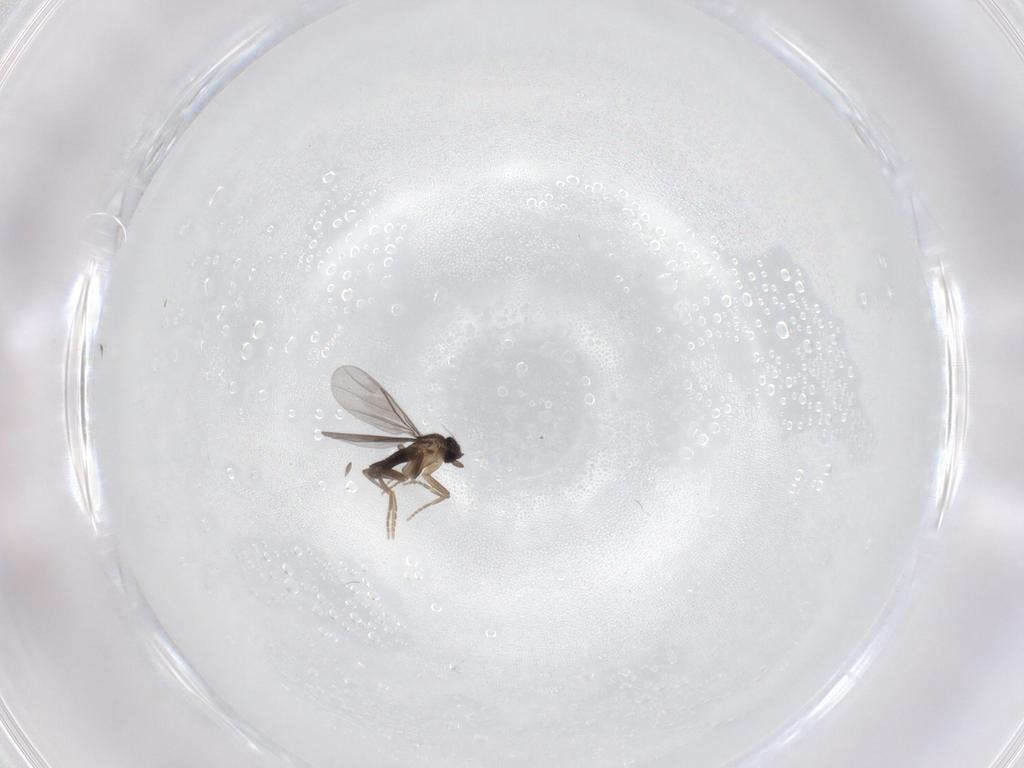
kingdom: Animalia
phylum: Arthropoda
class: Insecta
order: Diptera
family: Chironomidae
